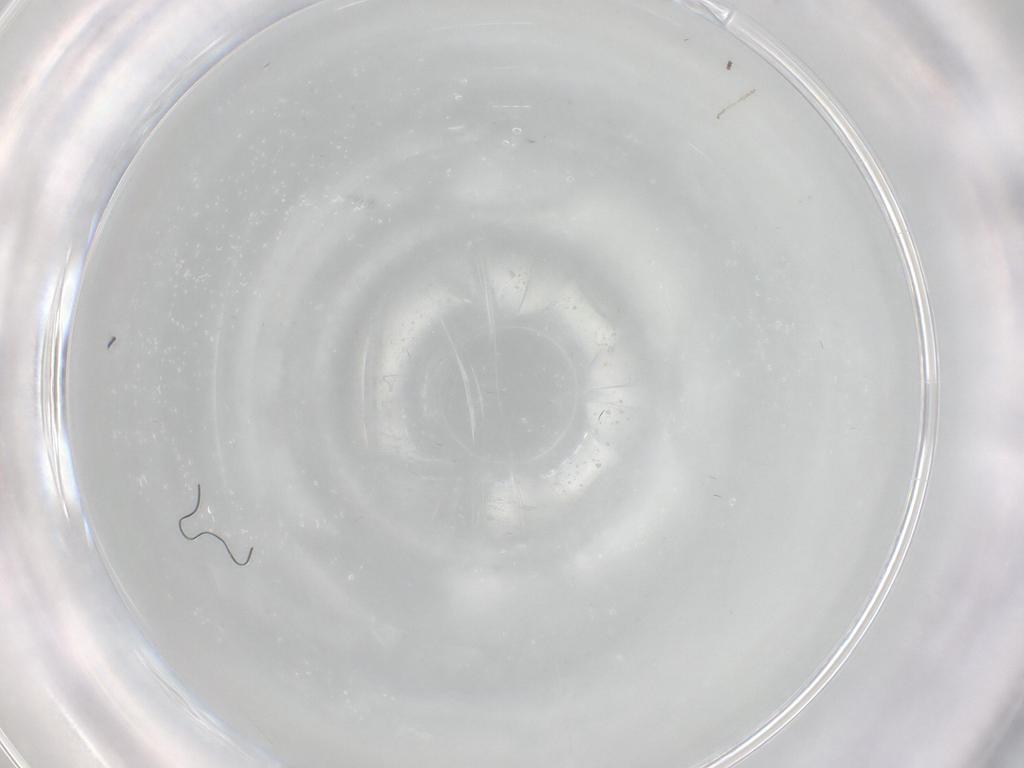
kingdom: Animalia
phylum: Arthropoda
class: Insecta
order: Diptera
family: Cecidomyiidae
